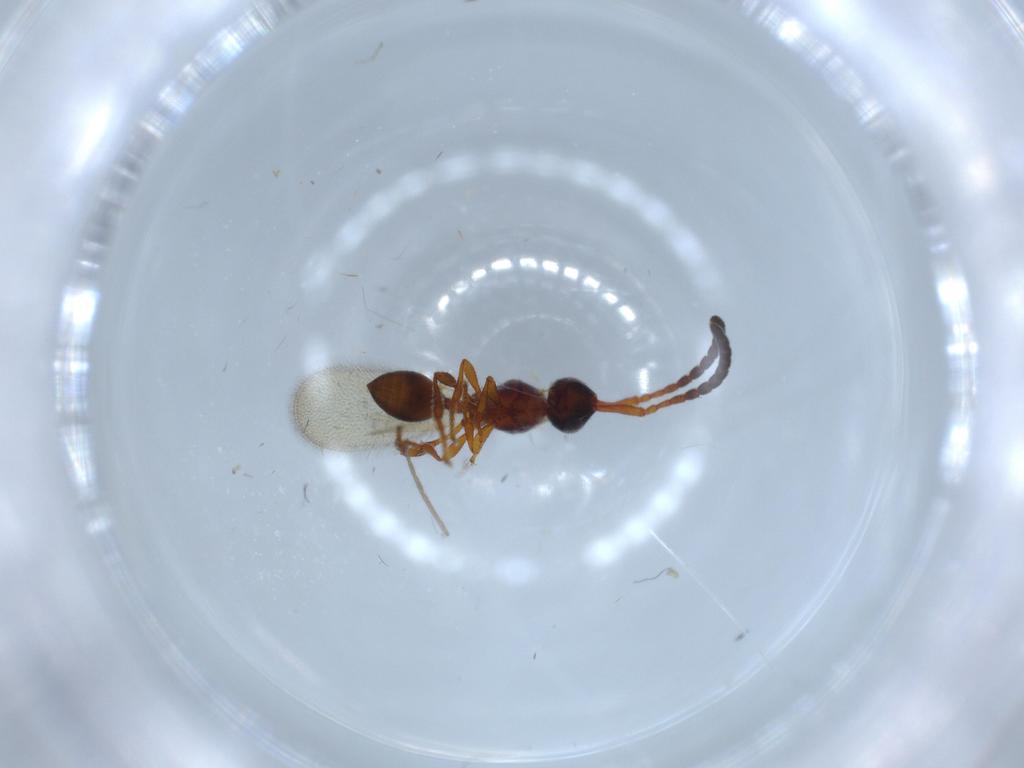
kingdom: Animalia
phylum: Arthropoda
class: Insecta
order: Hymenoptera
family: Diapriidae
